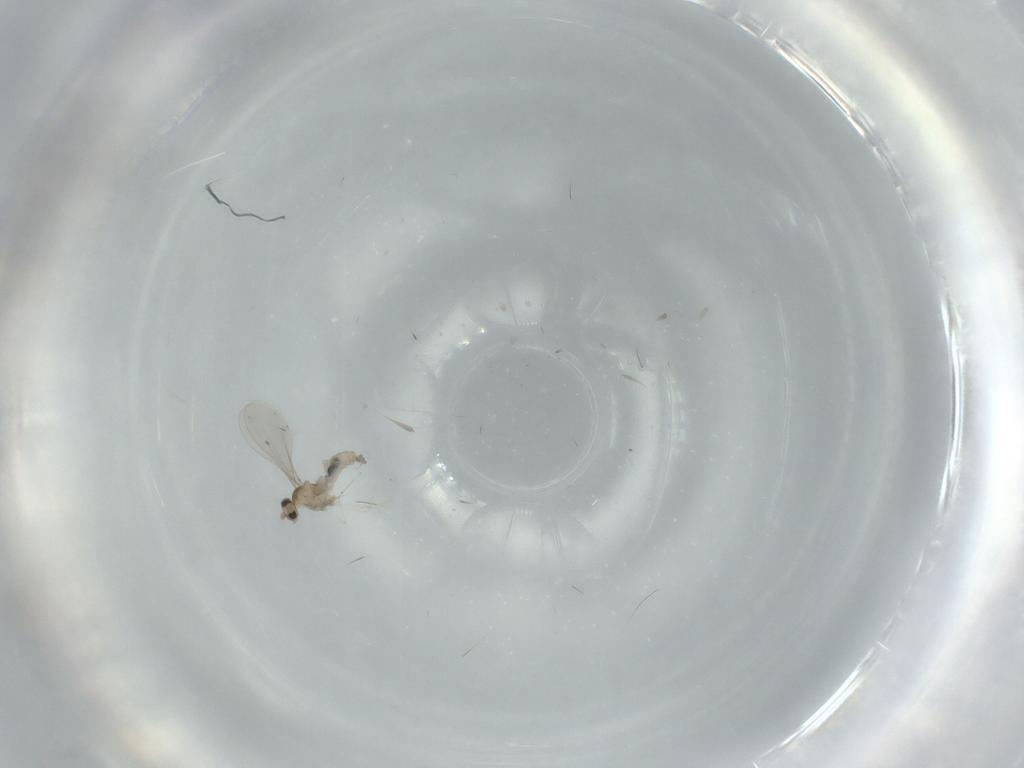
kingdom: Animalia
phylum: Arthropoda
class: Insecta
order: Diptera
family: Cecidomyiidae
